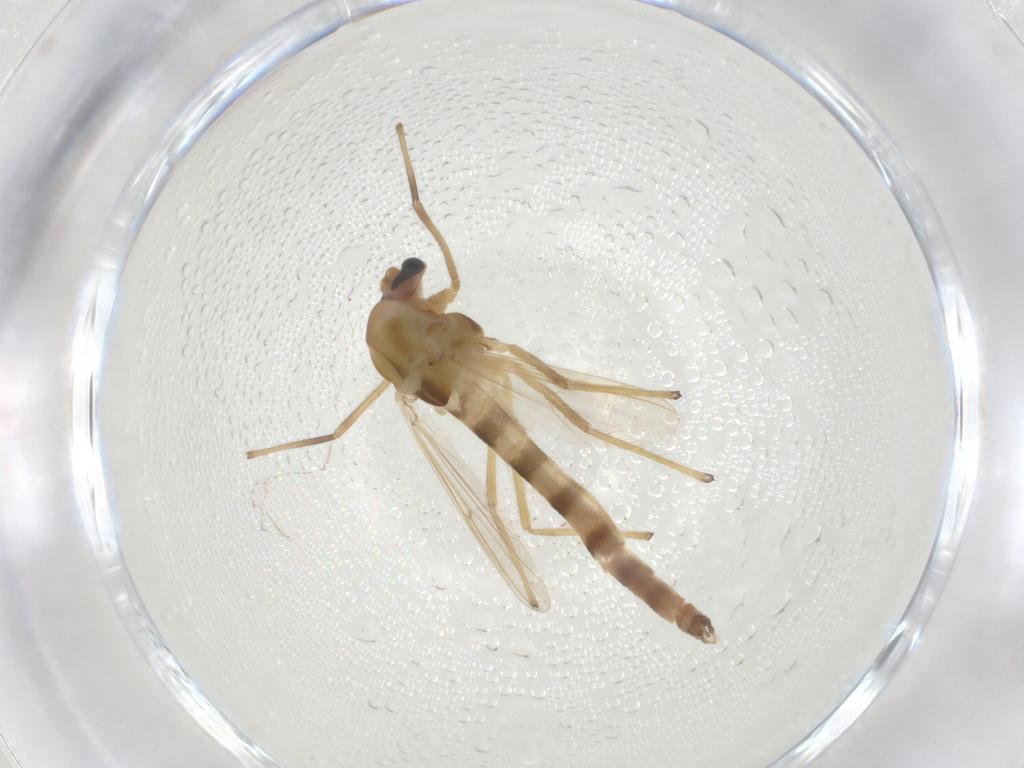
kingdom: Animalia
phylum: Arthropoda
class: Insecta
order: Diptera
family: Chironomidae
